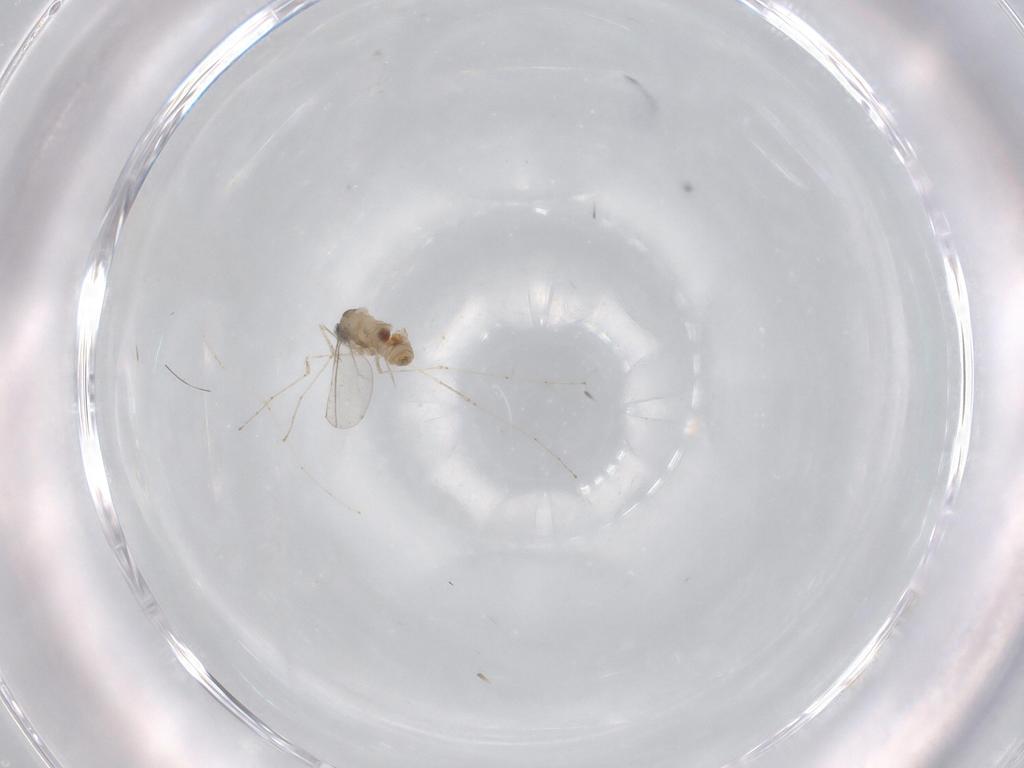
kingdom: Animalia
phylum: Arthropoda
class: Insecta
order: Diptera
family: Cecidomyiidae
